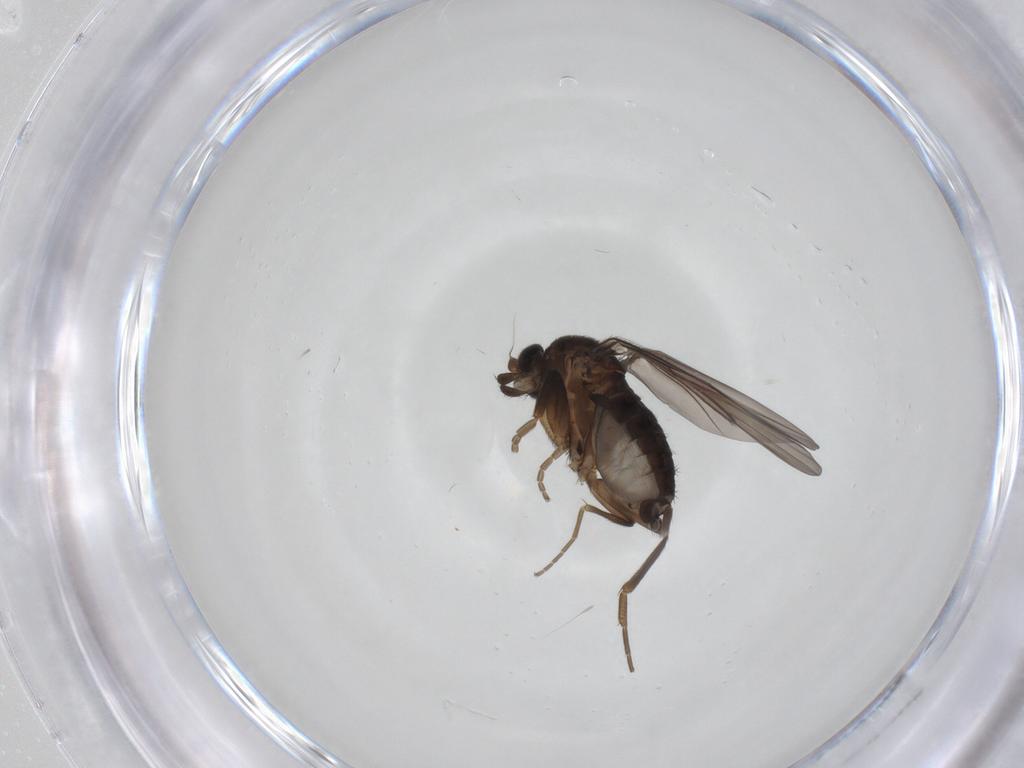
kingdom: Animalia
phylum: Arthropoda
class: Insecta
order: Diptera
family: Phoridae
